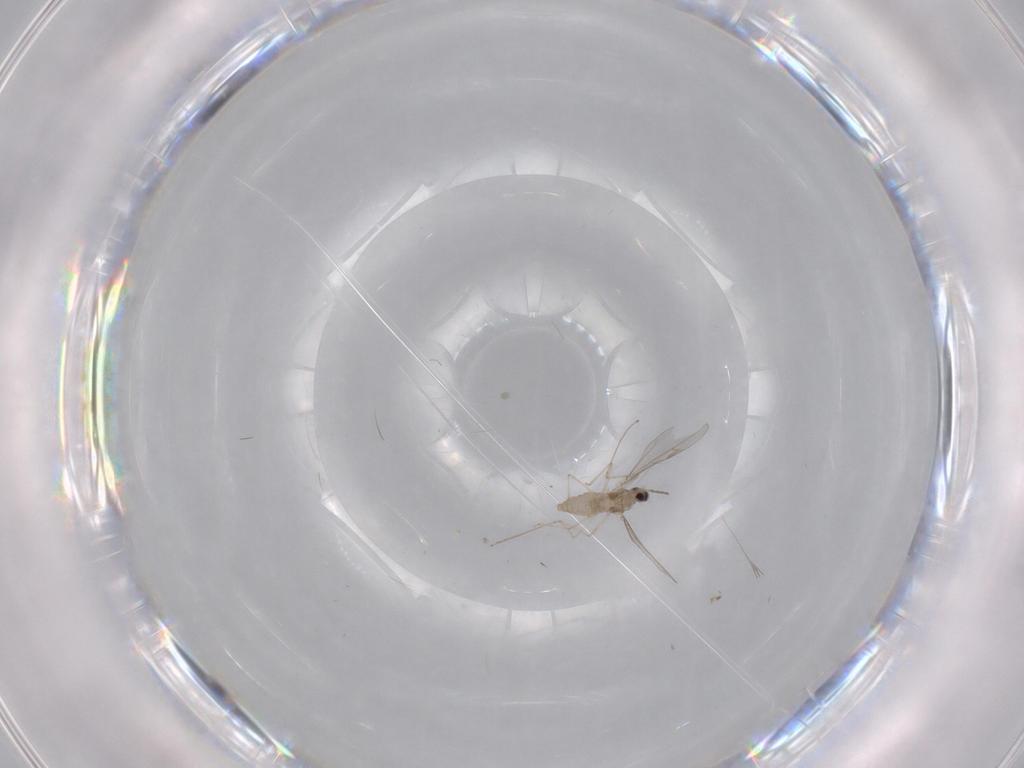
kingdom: Animalia
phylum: Arthropoda
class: Insecta
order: Diptera
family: Cecidomyiidae
